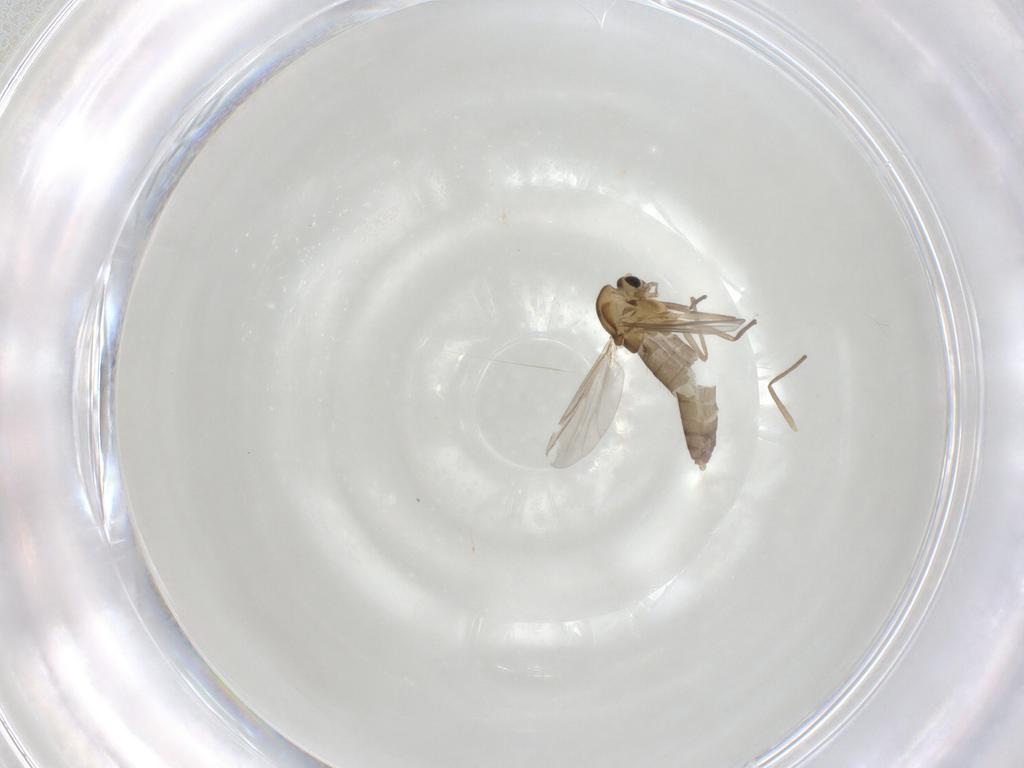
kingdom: Animalia
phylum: Arthropoda
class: Insecta
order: Diptera
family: Chironomidae
